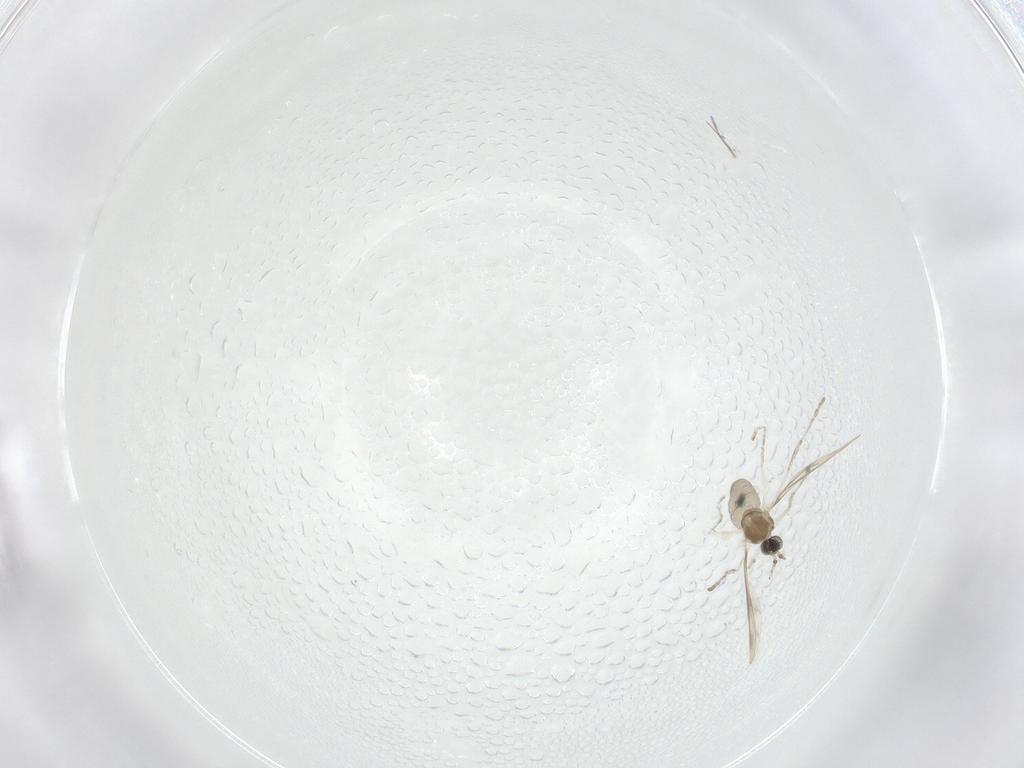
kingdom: Animalia
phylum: Arthropoda
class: Insecta
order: Diptera
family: Cecidomyiidae
